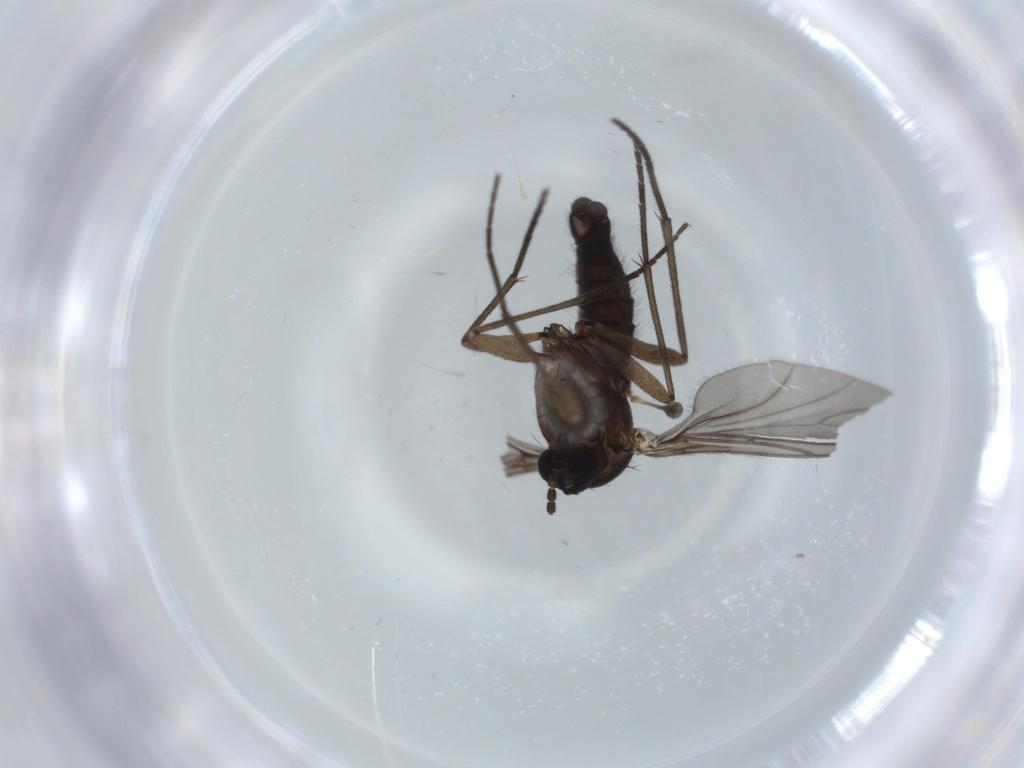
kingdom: Animalia
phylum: Arthropoda
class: Insecta
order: Diptera
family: Sciaridae
